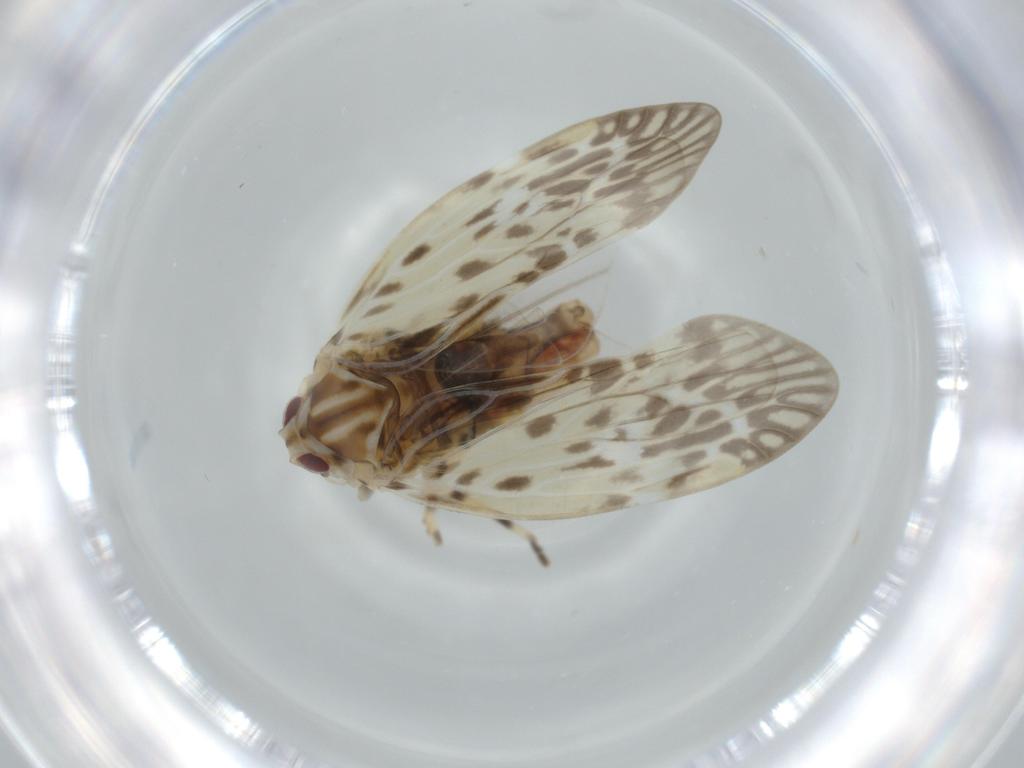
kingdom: Animalia
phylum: Arthropoda
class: Insecta
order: Hemiptera
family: Derbidae
